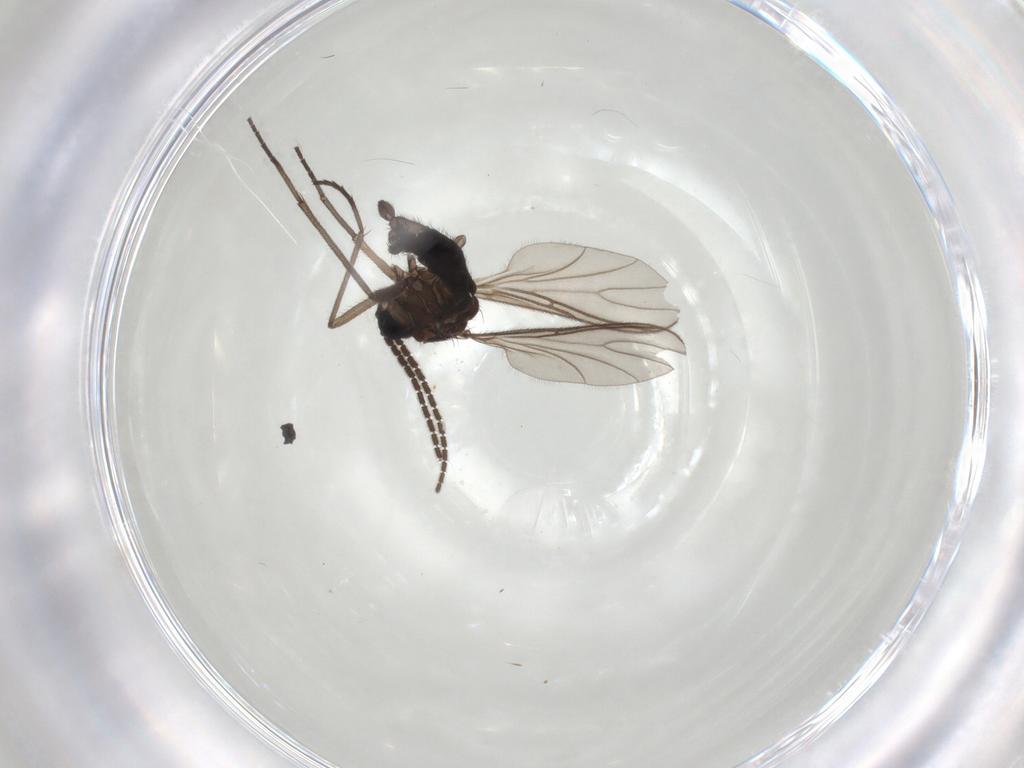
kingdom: Animalia
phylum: Arthropoda
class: Insecta
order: Diptera
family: Sciaridae
